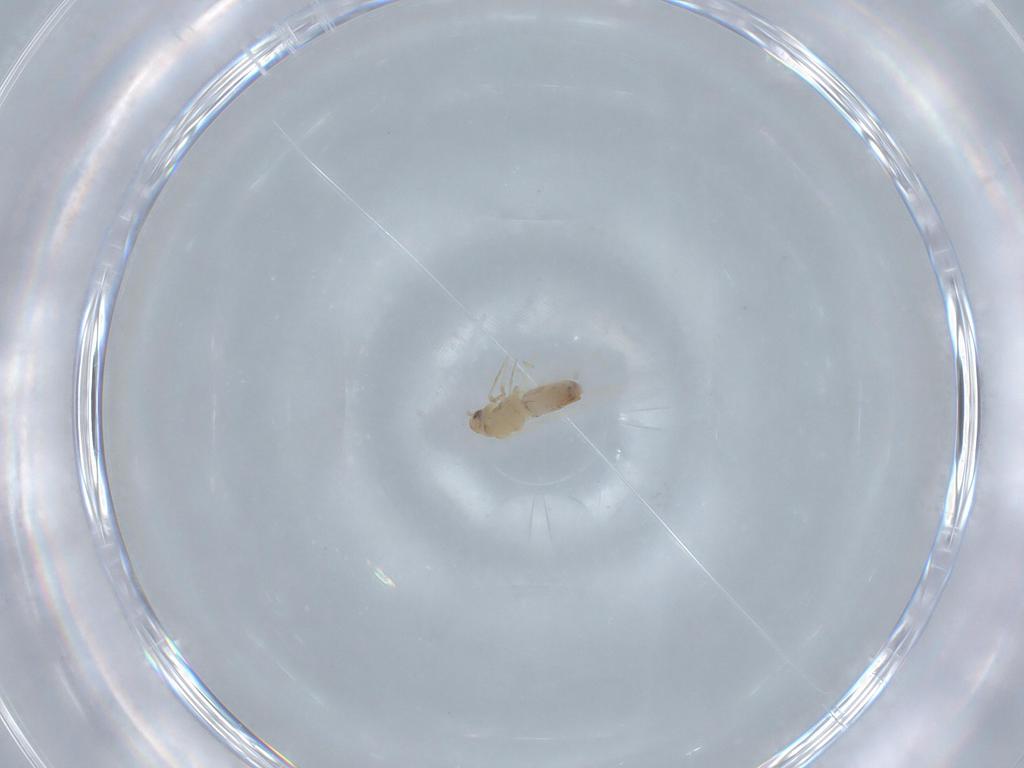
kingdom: Animalia
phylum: Arthropoda
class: Insecta
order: Hemiptera
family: Aleyrodidae
